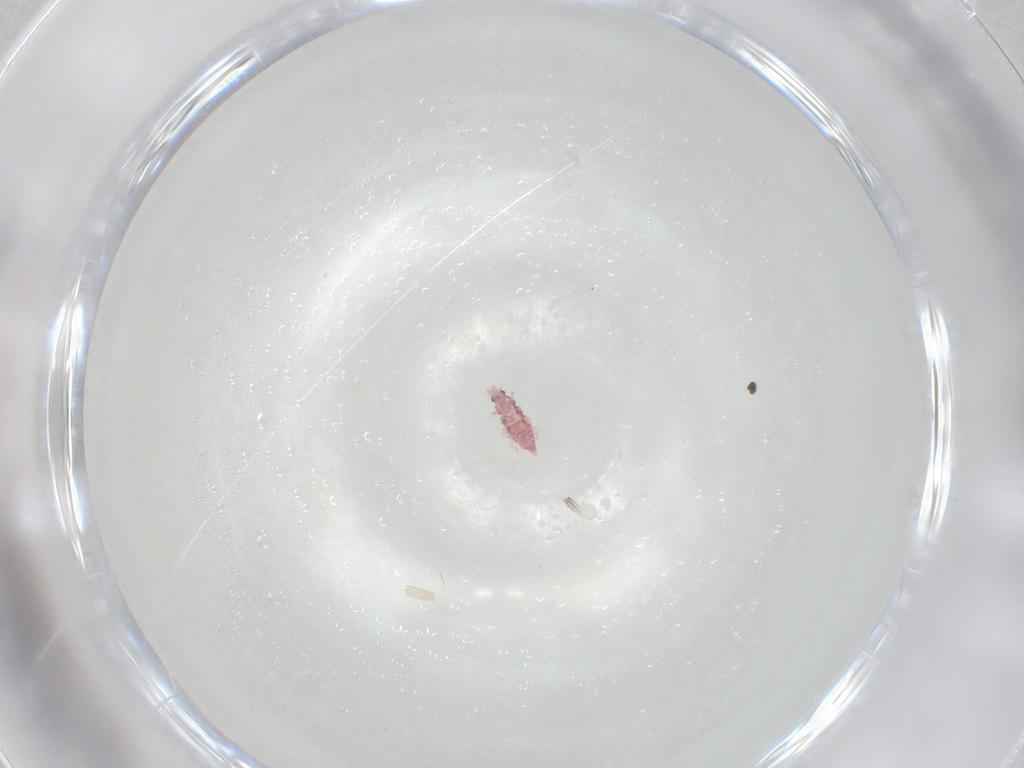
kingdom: Animalia
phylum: Arthropoda
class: Insecta
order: Neuroptera
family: Coniopterygidae
